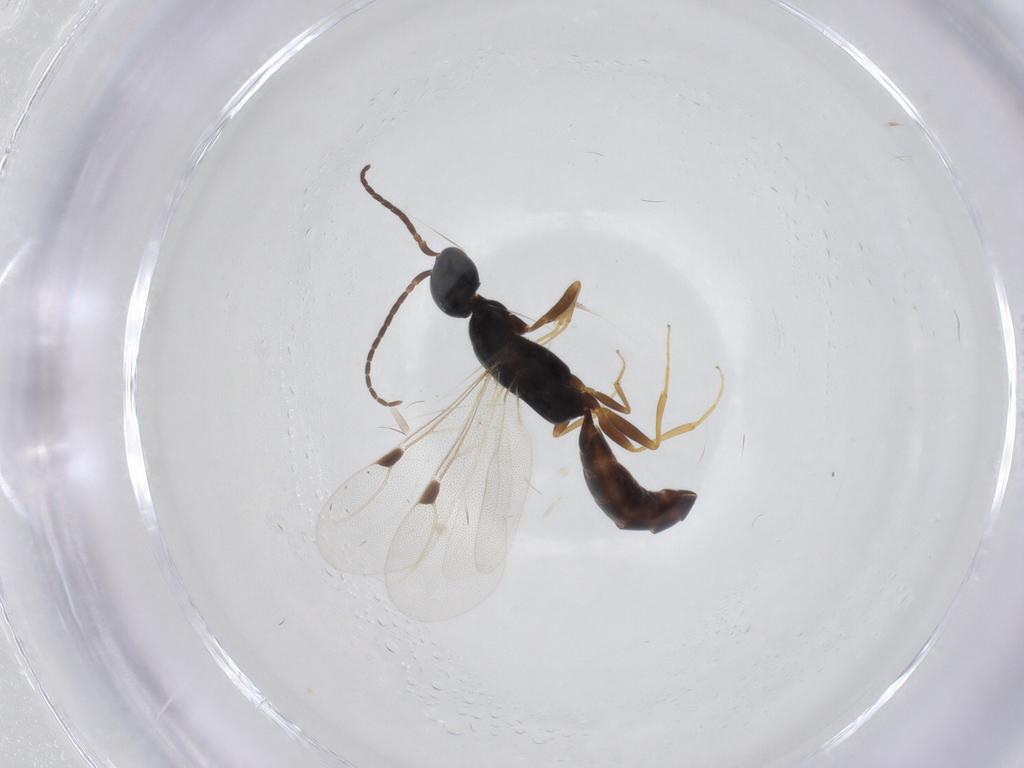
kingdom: Animalia
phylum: Arthropoda
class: Insecta
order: Hymenoptera
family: Bethylidae
